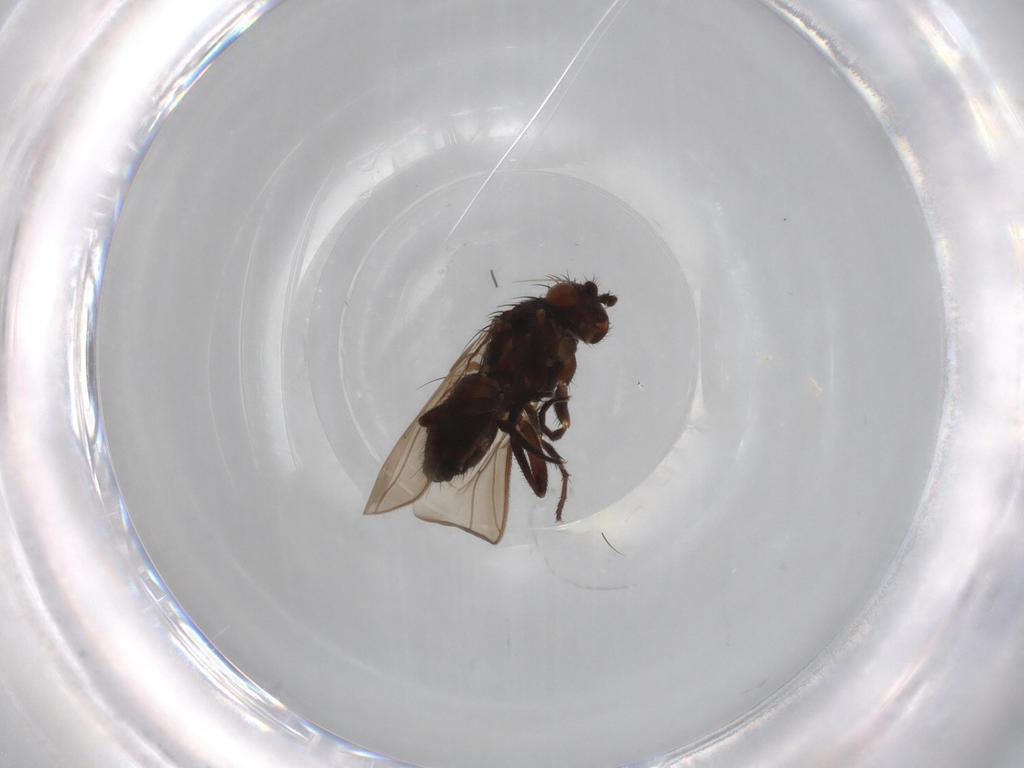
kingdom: Animalia
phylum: Arthropoda
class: Insecta
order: Diptera
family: Sphaeroceridae
